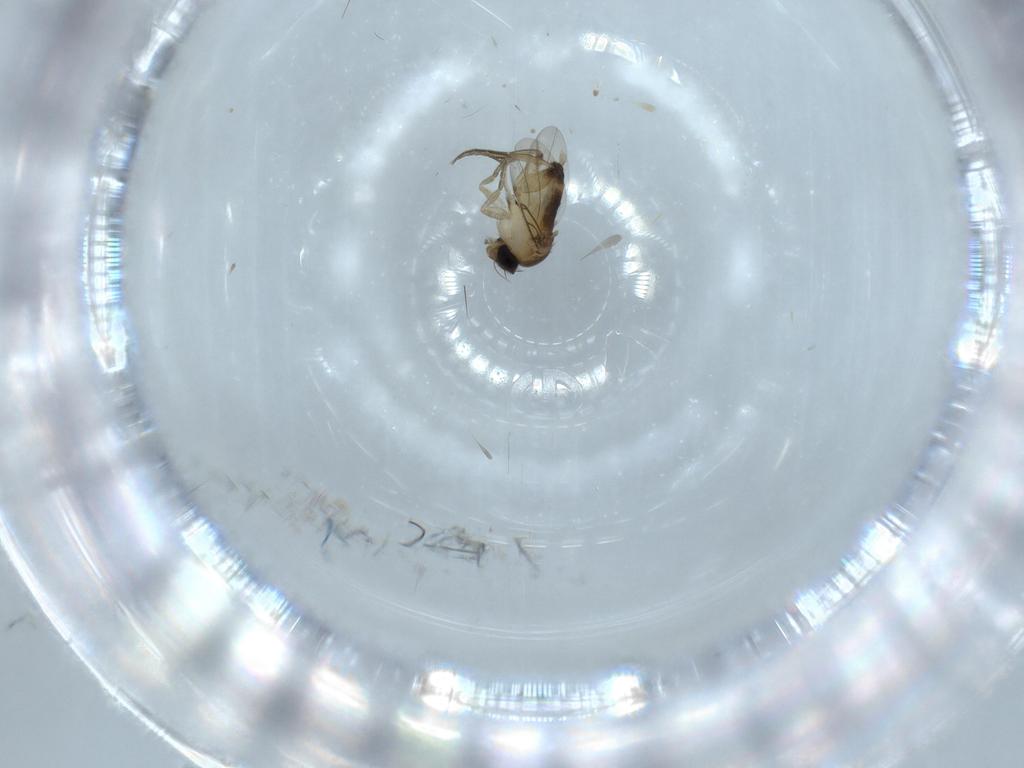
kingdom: Animalia
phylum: Arthropoda
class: Insecta
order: Diptera
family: Phoridae
